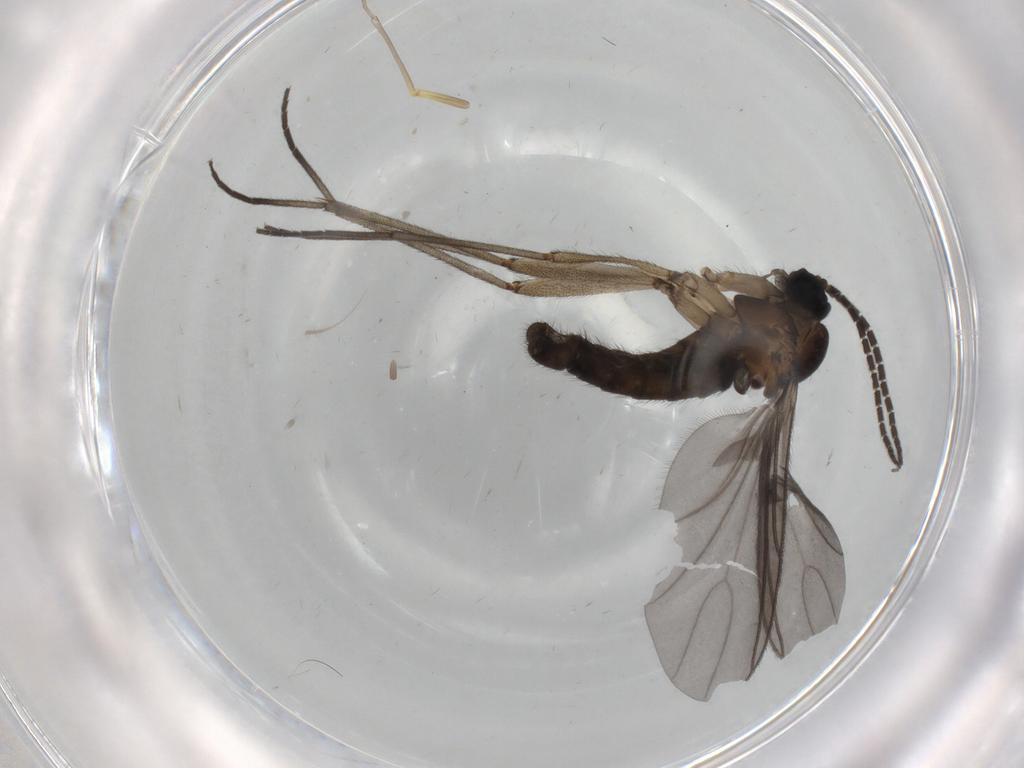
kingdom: Animalia
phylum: Arthropoda
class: Insecta
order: Diptera
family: Sciaridae
